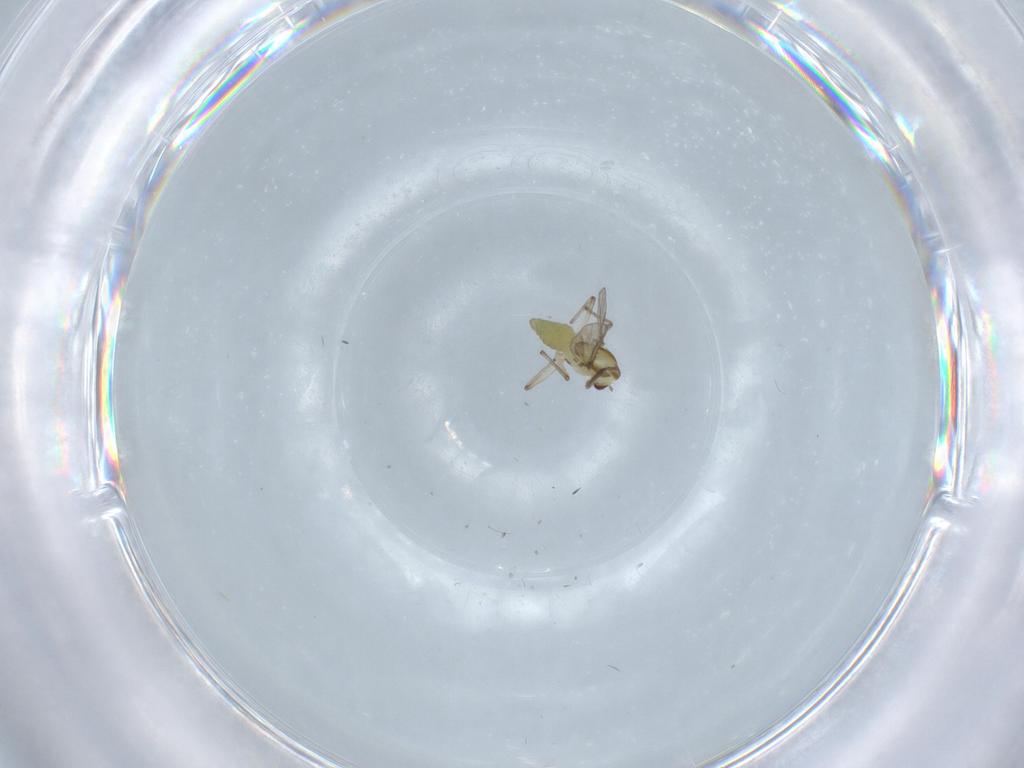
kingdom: Animalia
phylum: Arthropoda
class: Insecta
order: Diptera
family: Chironomidae
